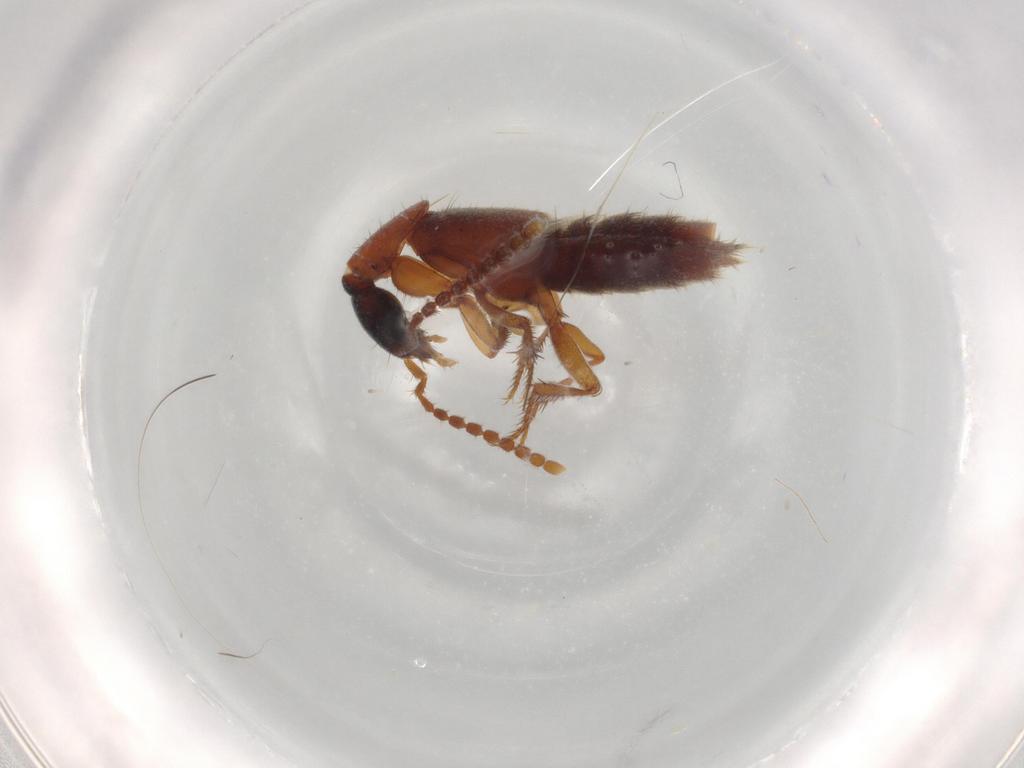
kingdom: Animalia
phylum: Arthropoda
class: Insecta
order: Coleoptera
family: Staphylinidae
